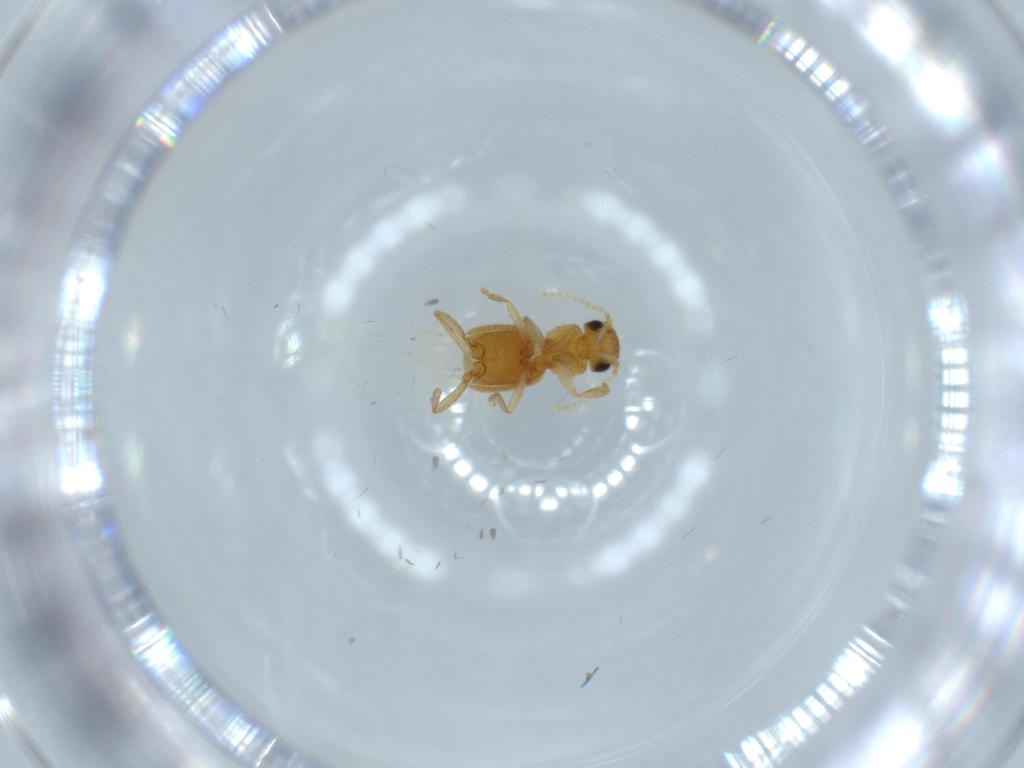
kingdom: Animalia
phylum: Arthropoda
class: Insecta
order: Coleoptera
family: Staphylinidae
